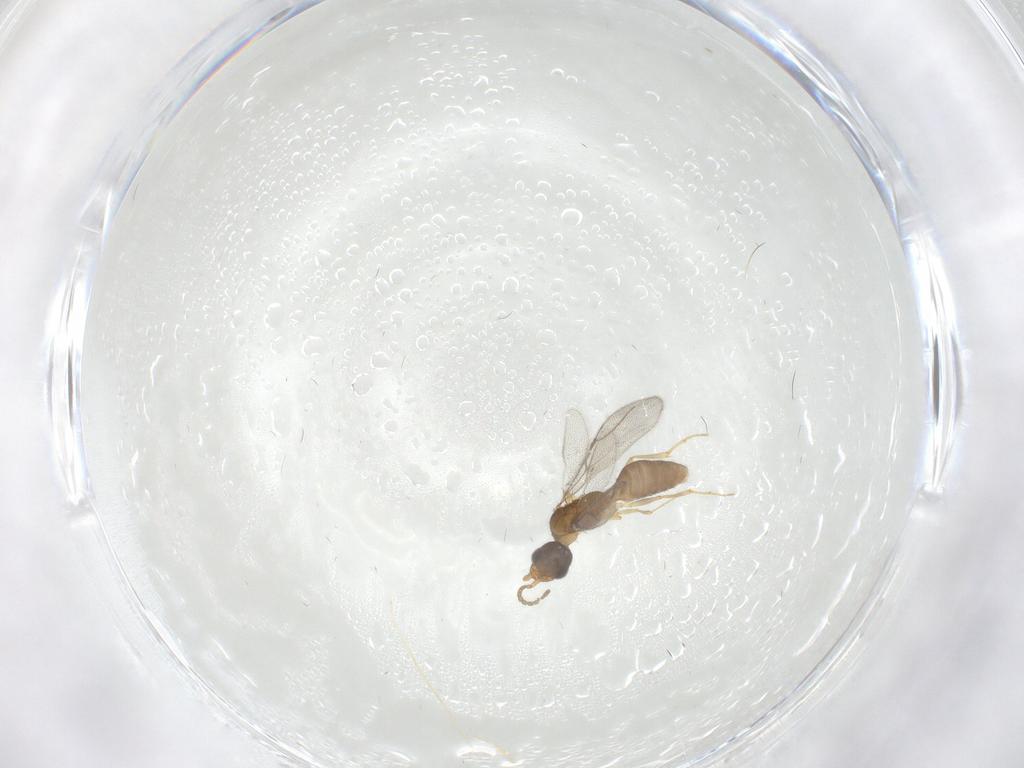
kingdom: Animalia
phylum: Arthropoda
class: Insecta
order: Hymenoptera
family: Bethylidae
